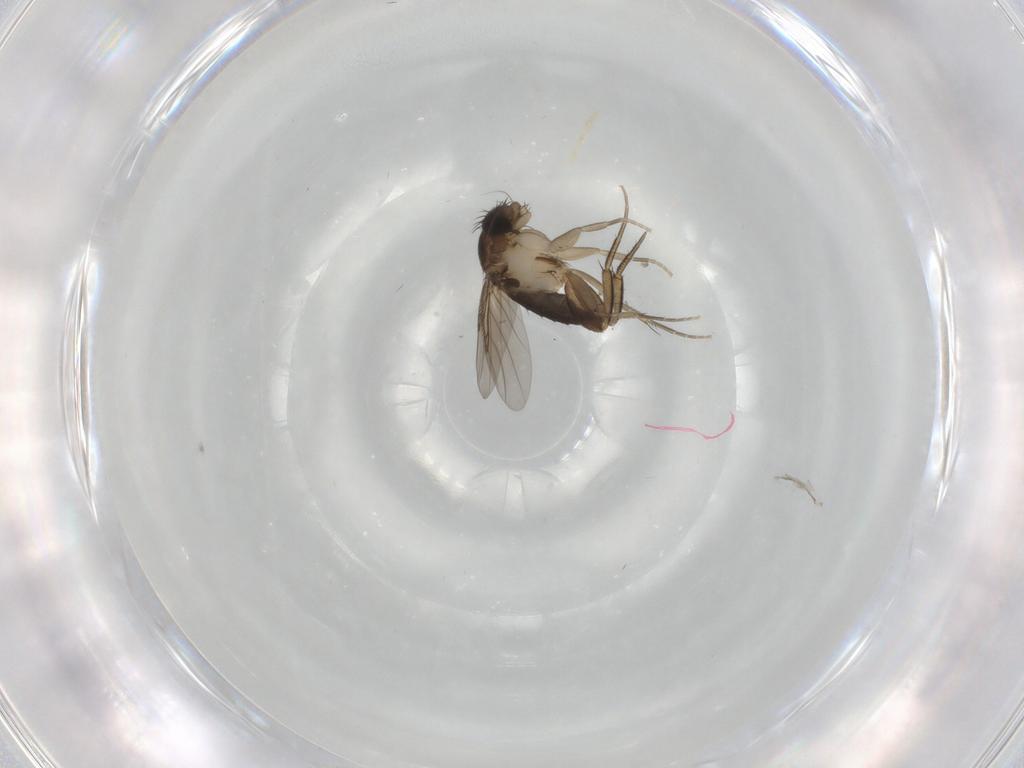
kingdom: Animalia
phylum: Arthropoda
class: Insecta
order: Diptera
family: Phoridae
